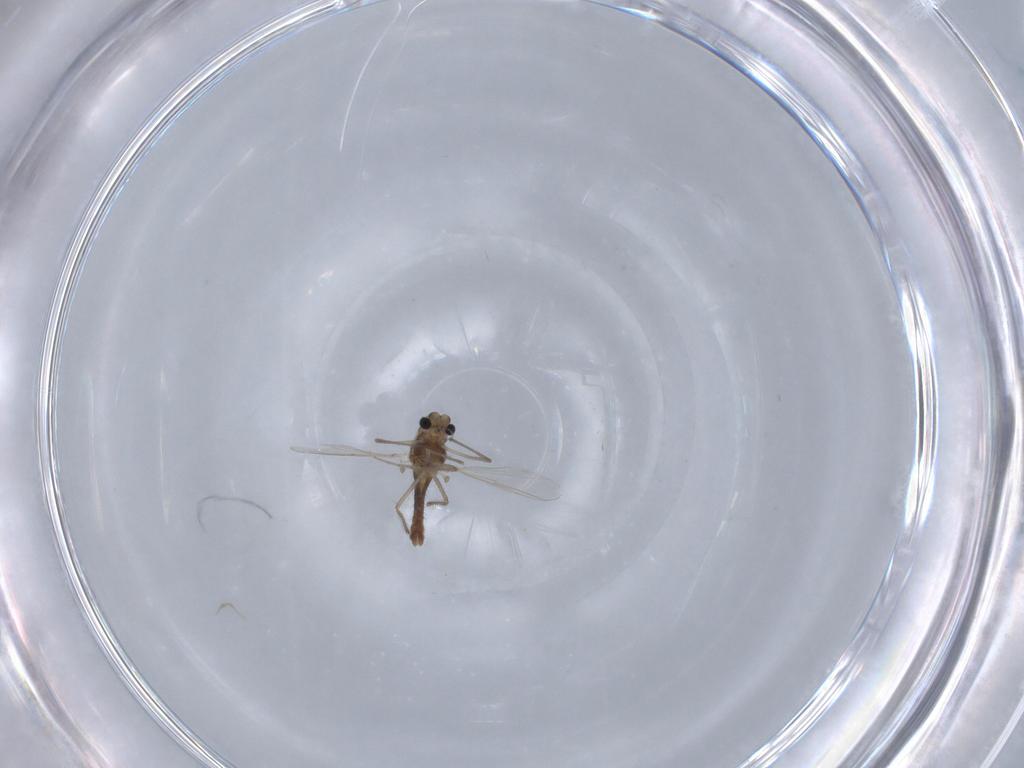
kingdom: Animalia
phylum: Arthropoda
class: Insecta
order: Diptera
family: Chironomidae
